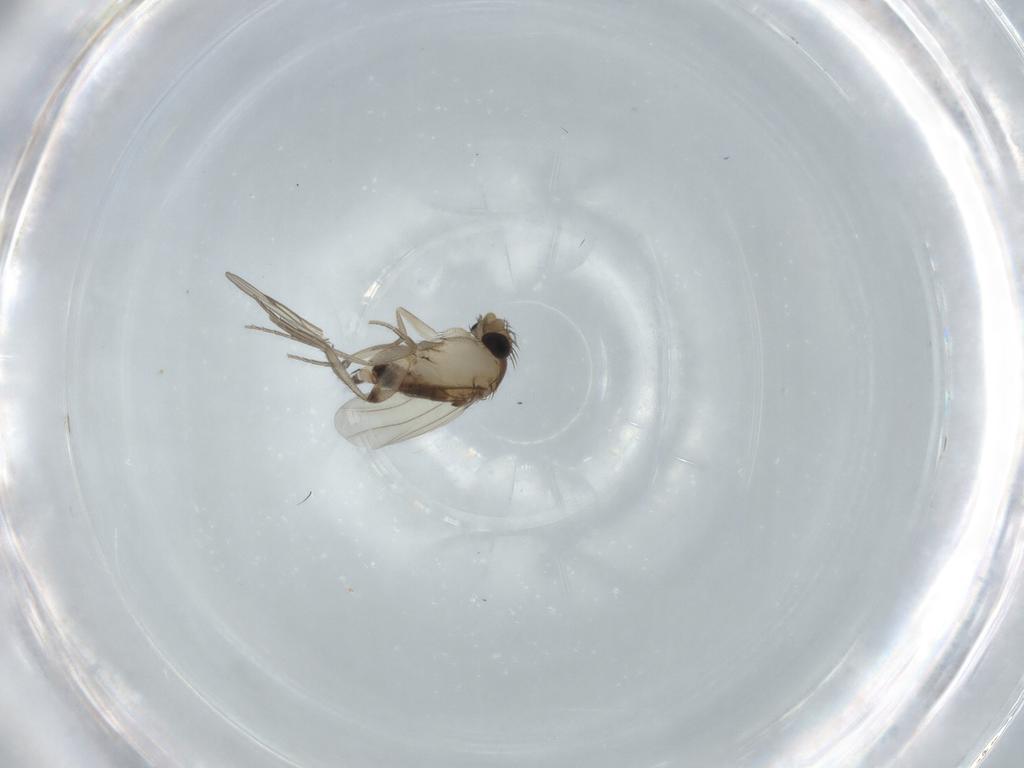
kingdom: Animalia
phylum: Arthropoda
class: Insecta
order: Diptera
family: Phoridae
